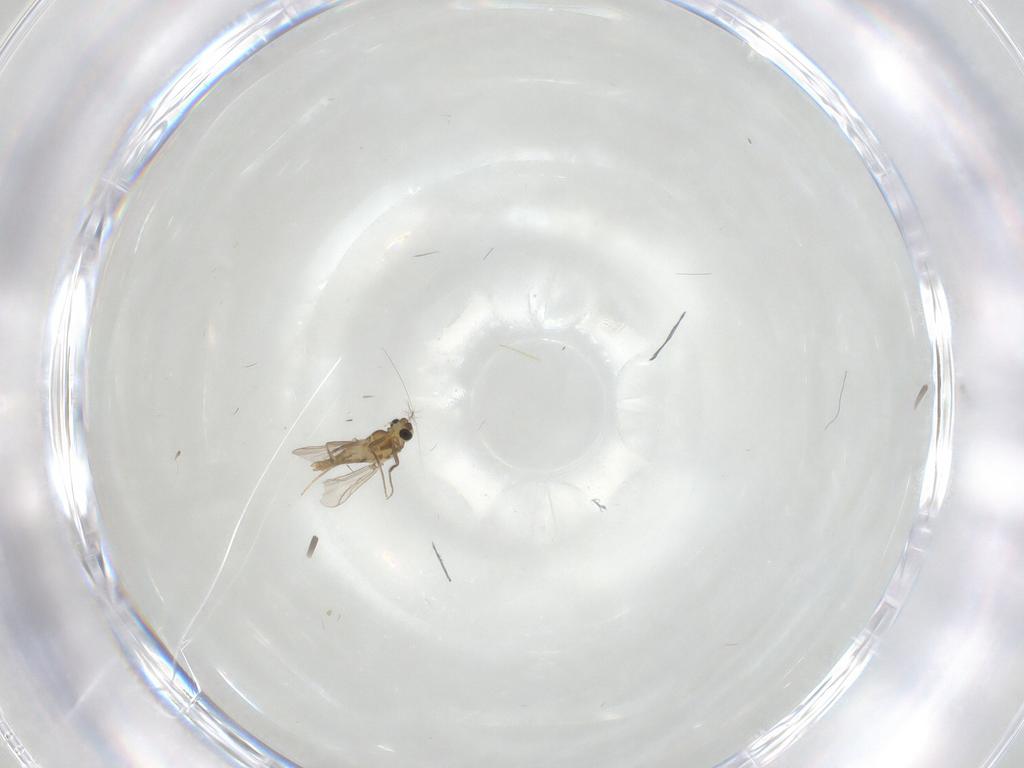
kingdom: Animalia
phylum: Arthropoda
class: Insecta
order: Diptera
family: Chironomidae
